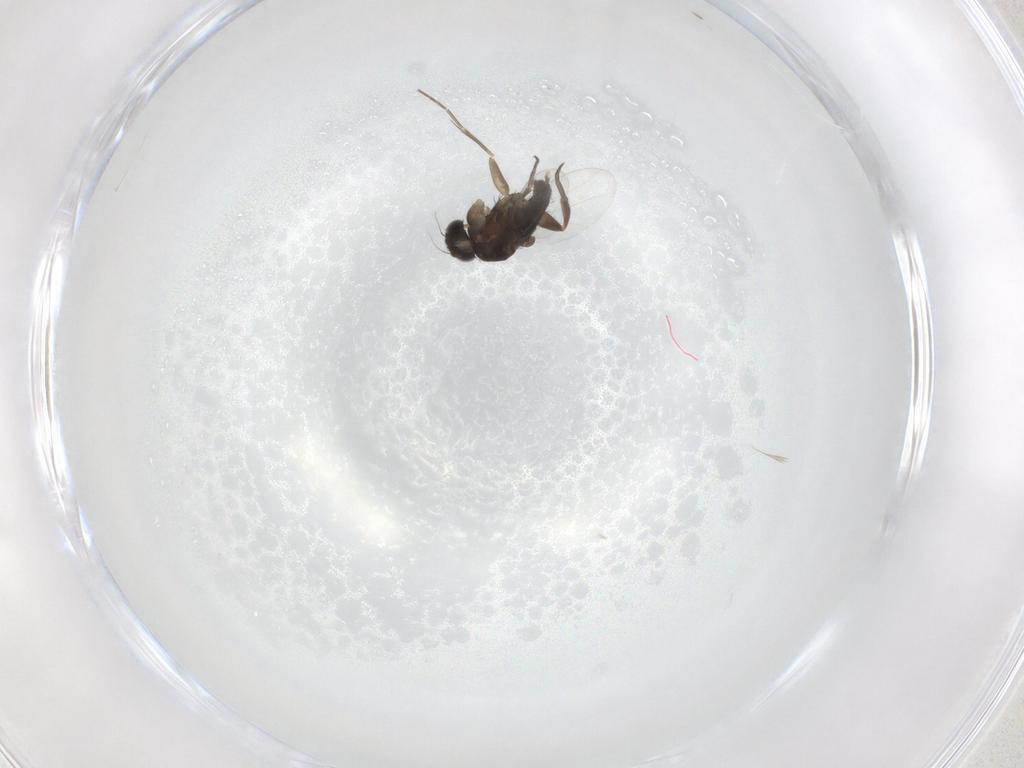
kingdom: Animalia
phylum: Arthropoda
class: Insecta
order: Diptera
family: Phoridae
